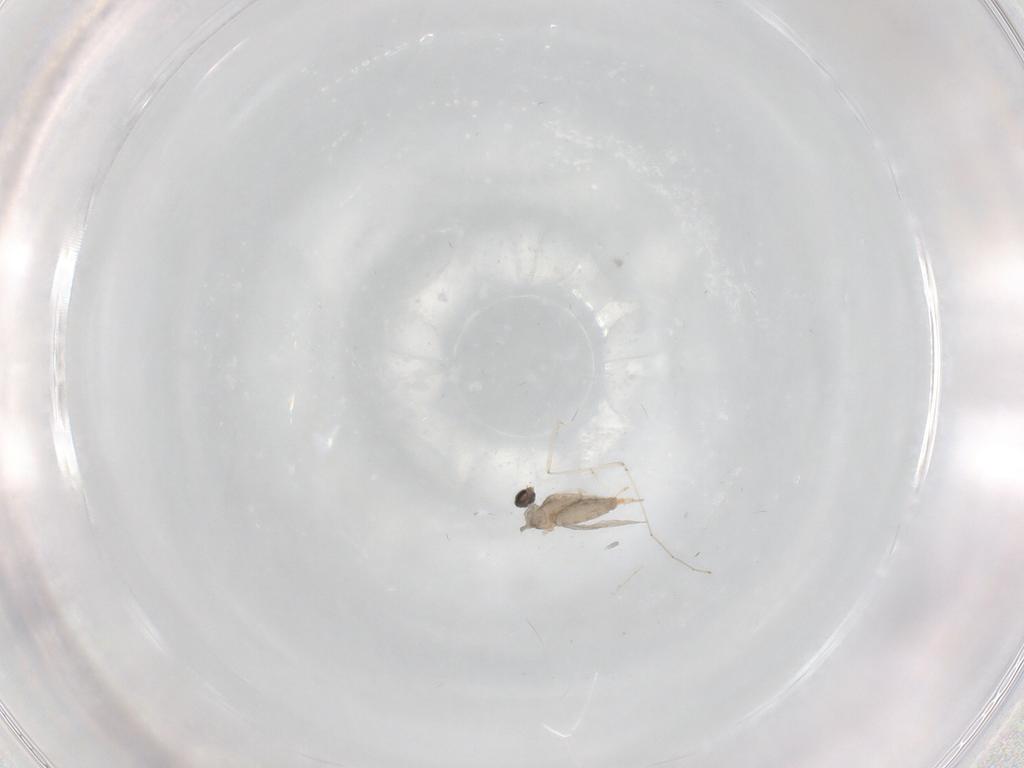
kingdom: Animalia
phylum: Arthropoda
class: Insecta
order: Diptera
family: Cecidomyiidae
